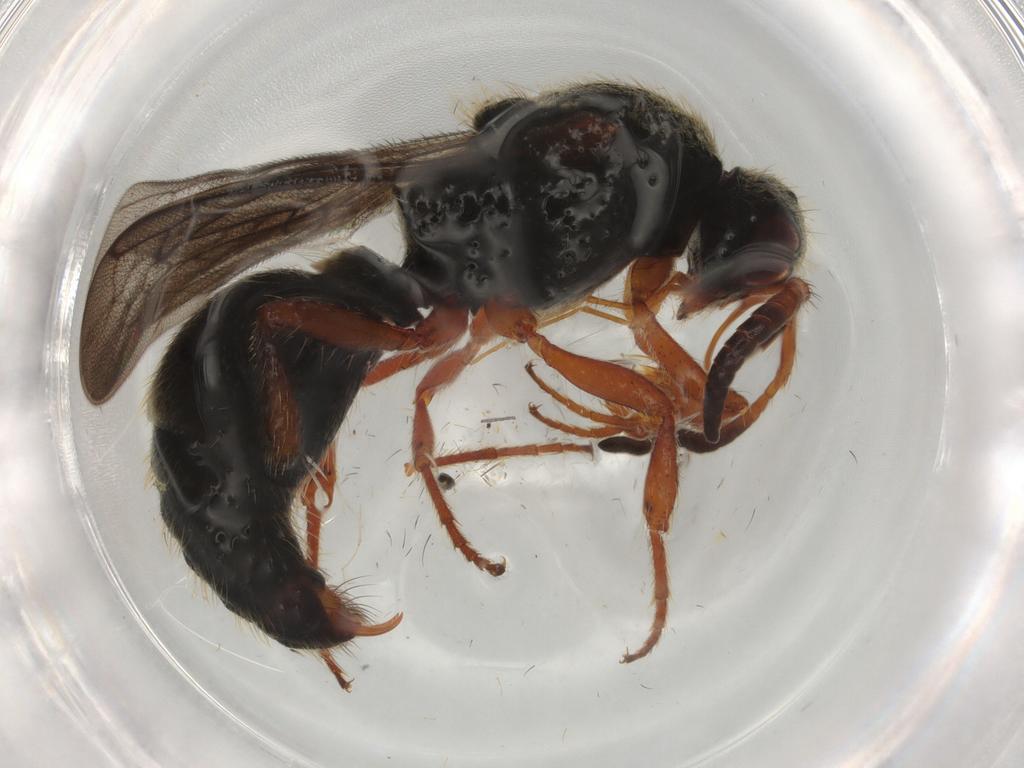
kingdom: Animalia
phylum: Arthropoda
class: Insecta
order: Hymenoptera
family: Mutillidae
